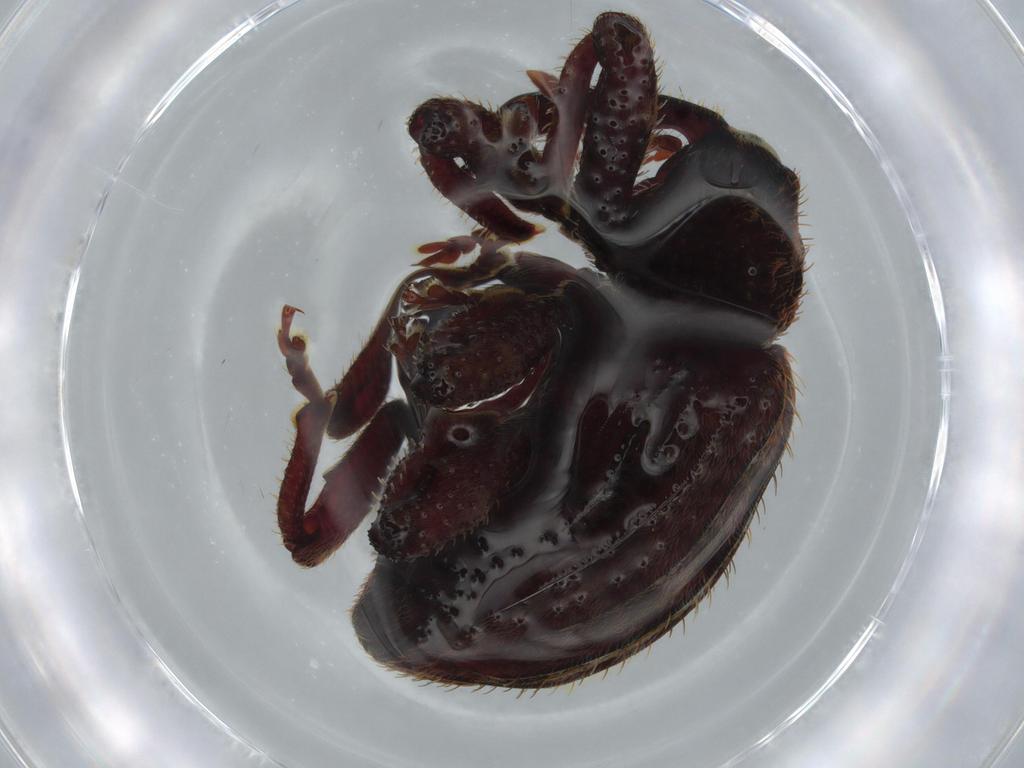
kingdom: Animalia
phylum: Arthropoda
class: Insecta
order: Coleoptera
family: Curculionidae
